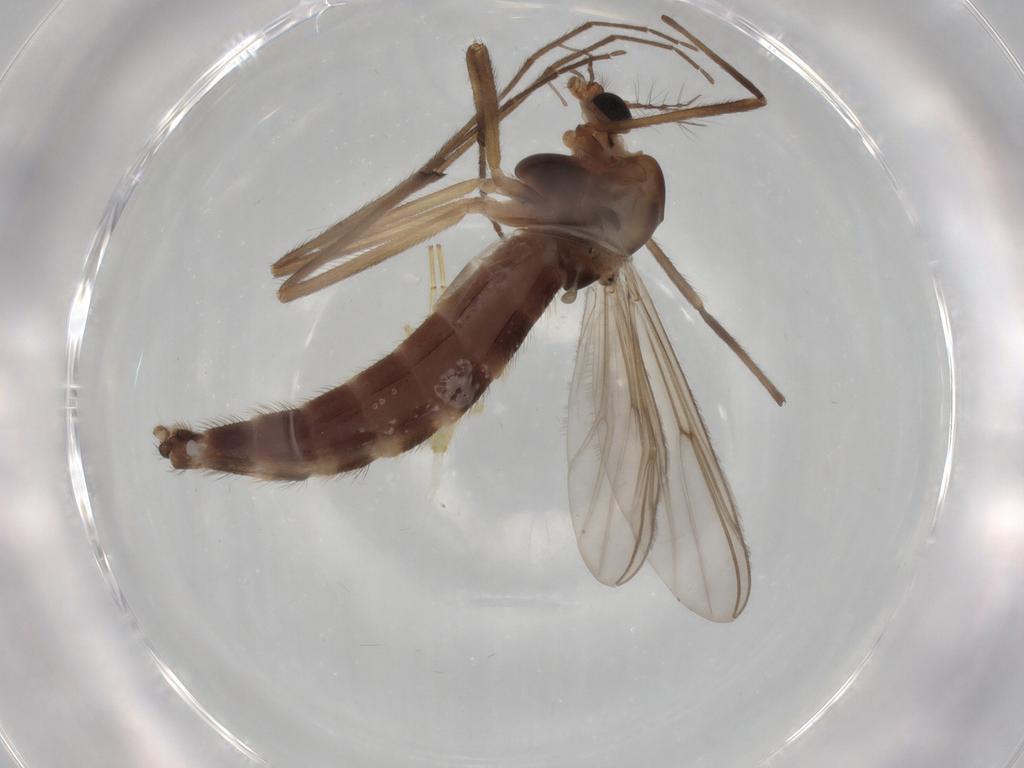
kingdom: Animalia
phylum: Arthropoda
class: Insecta
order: Diptera
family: Chironomidae
